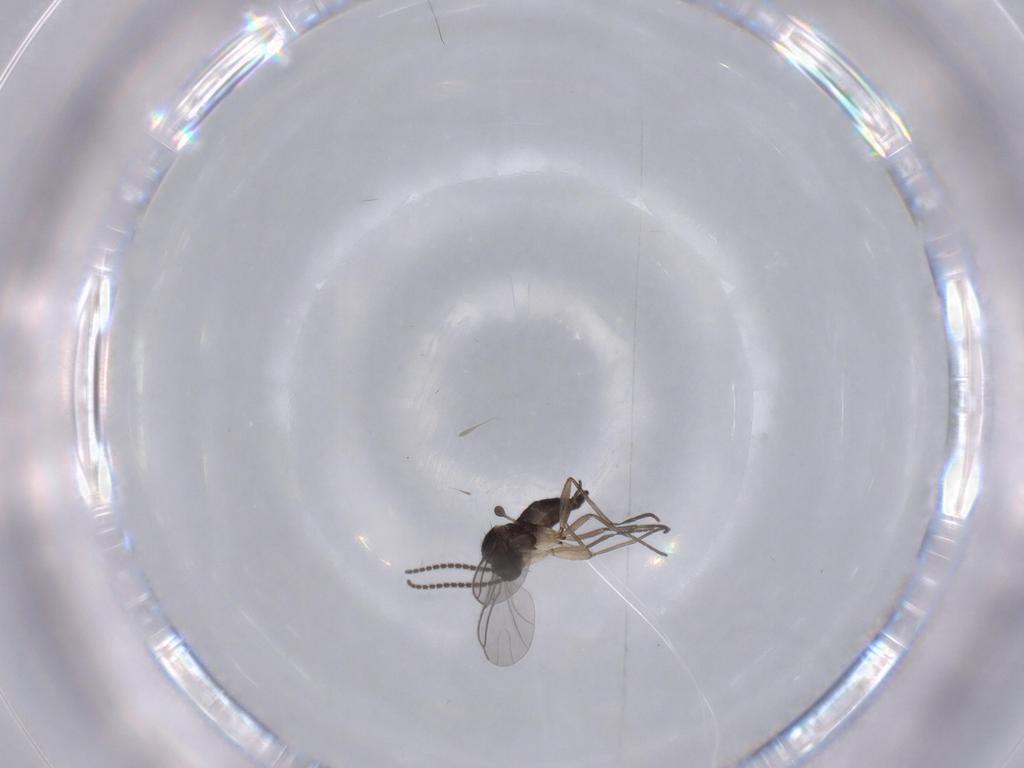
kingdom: Animalia
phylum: Arthropoda
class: Insecta
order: Diptera
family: Sciaridae
